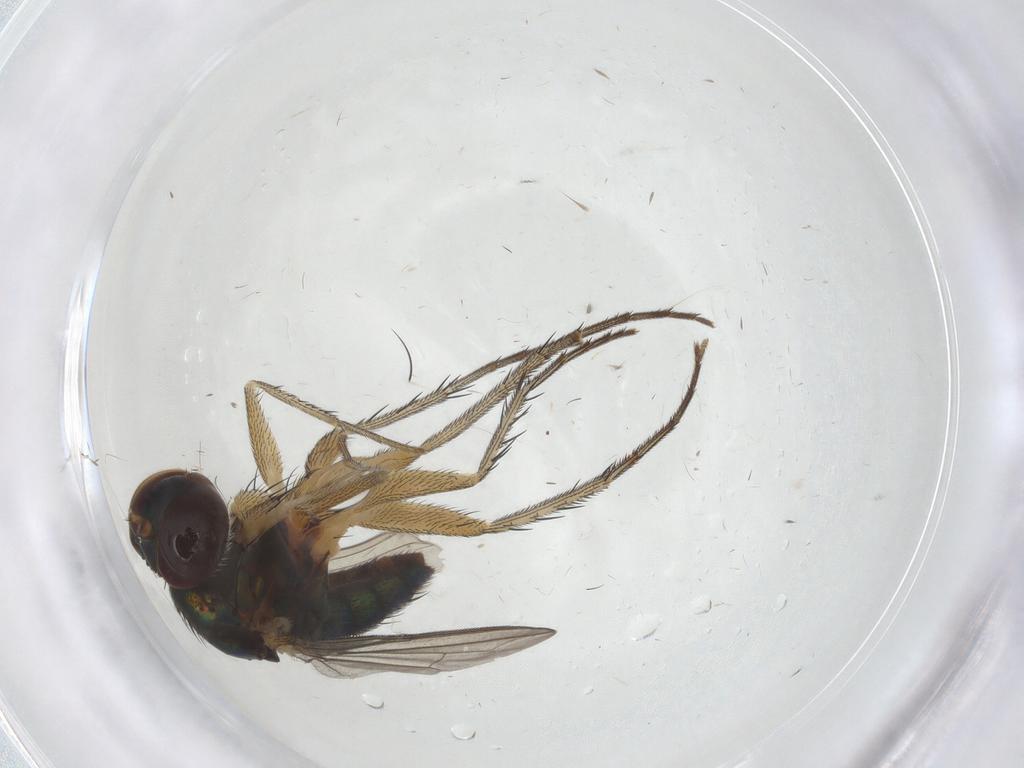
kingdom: Animalia
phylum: Arthropoda
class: Insecta
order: Diptera
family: Dolichopodidae
